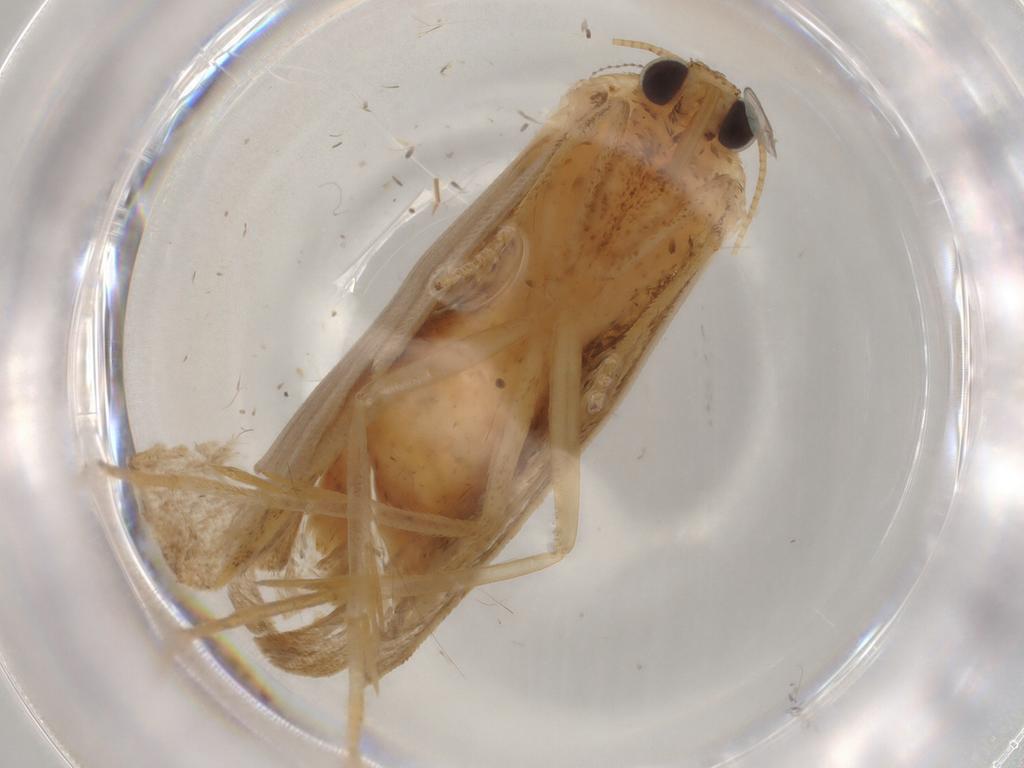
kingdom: Animalia
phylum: Arthropoda
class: Insecta
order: Lepidoptera
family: Erebidae
